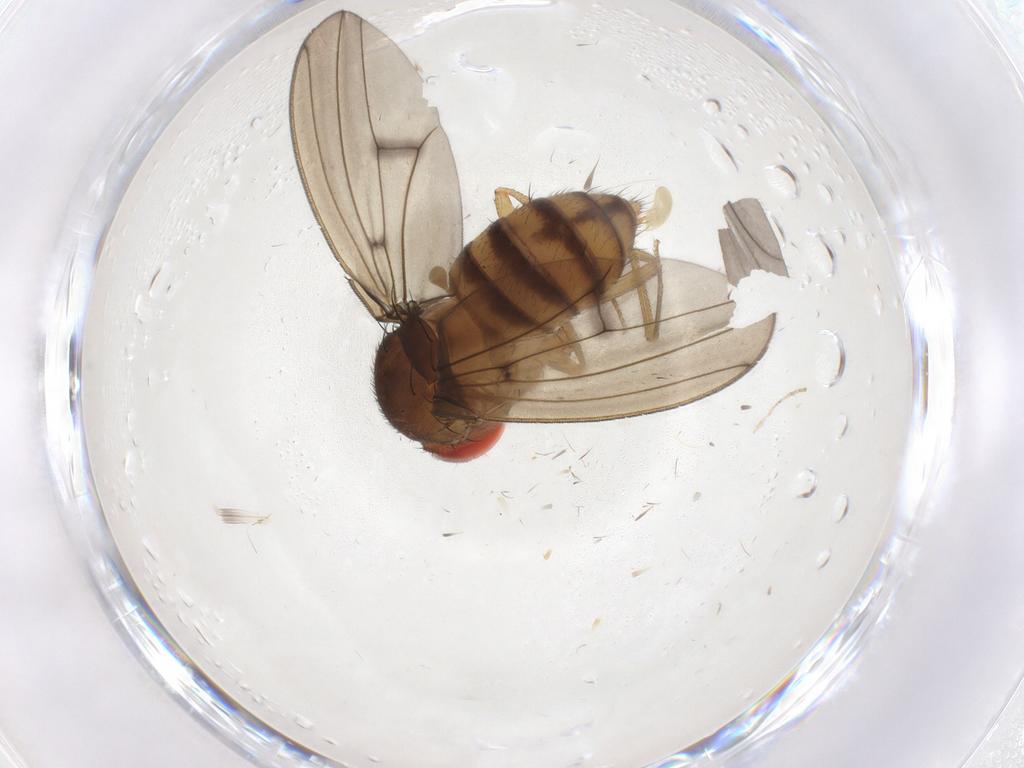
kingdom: Animalia
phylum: Arthropoda
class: Insecta
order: Diptera
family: Drosophilidae
